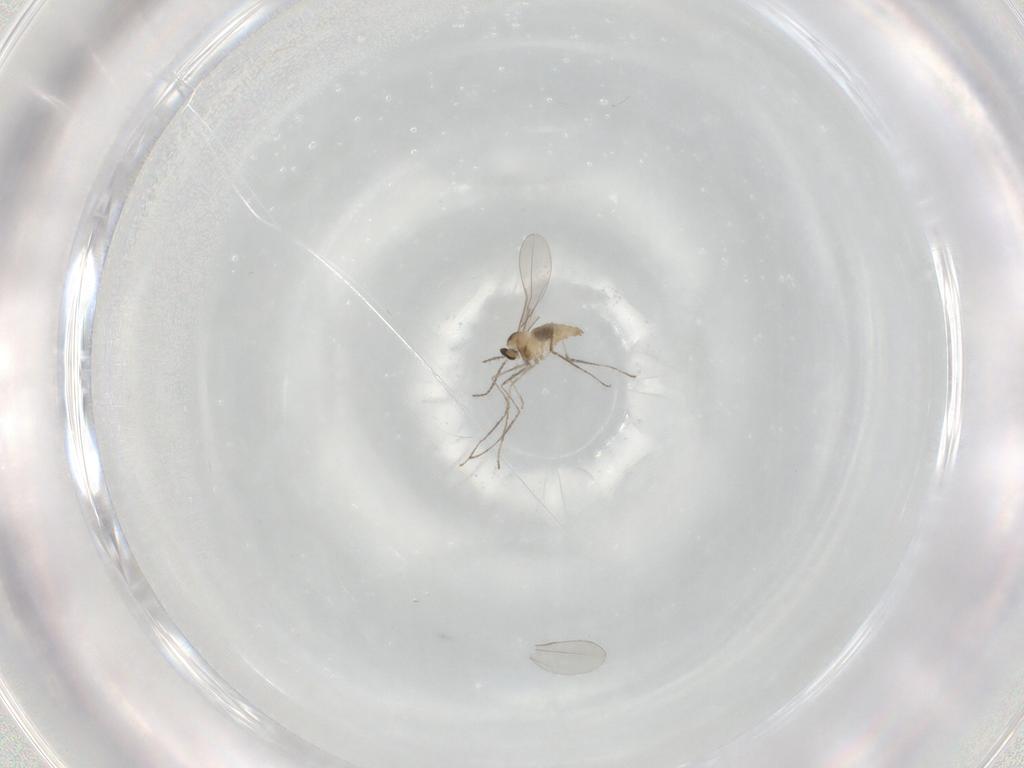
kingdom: Animalia
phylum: Arthropoda
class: Insecta
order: Diptera
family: Cecidomyiidae
